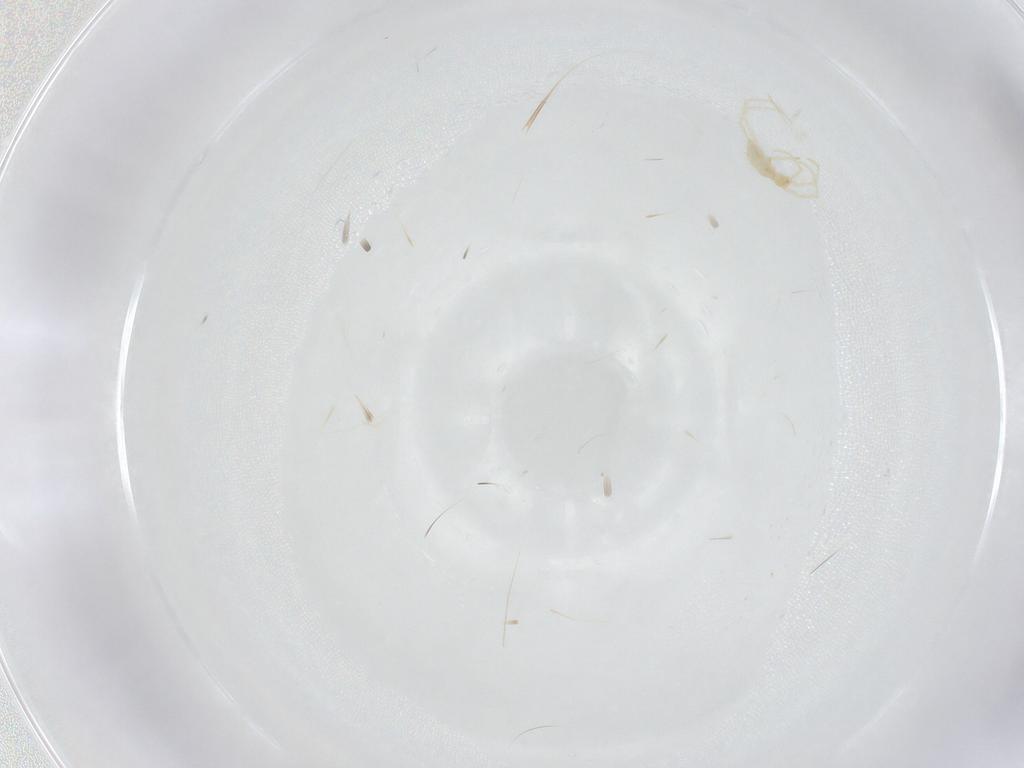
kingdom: Animalia
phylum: Arthropoda
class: Arachnida
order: Trombidiformes
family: Erythraeidae
